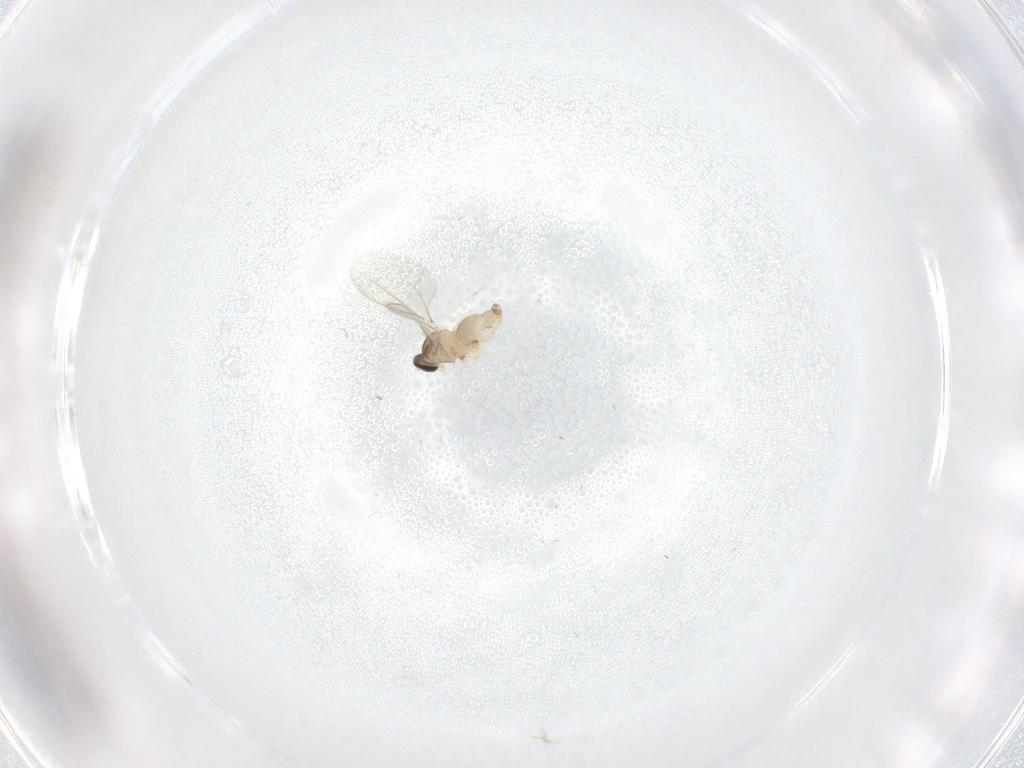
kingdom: Animalia
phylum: Arthropoda
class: Insecta
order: Diptera
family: Cecidomyiidae
